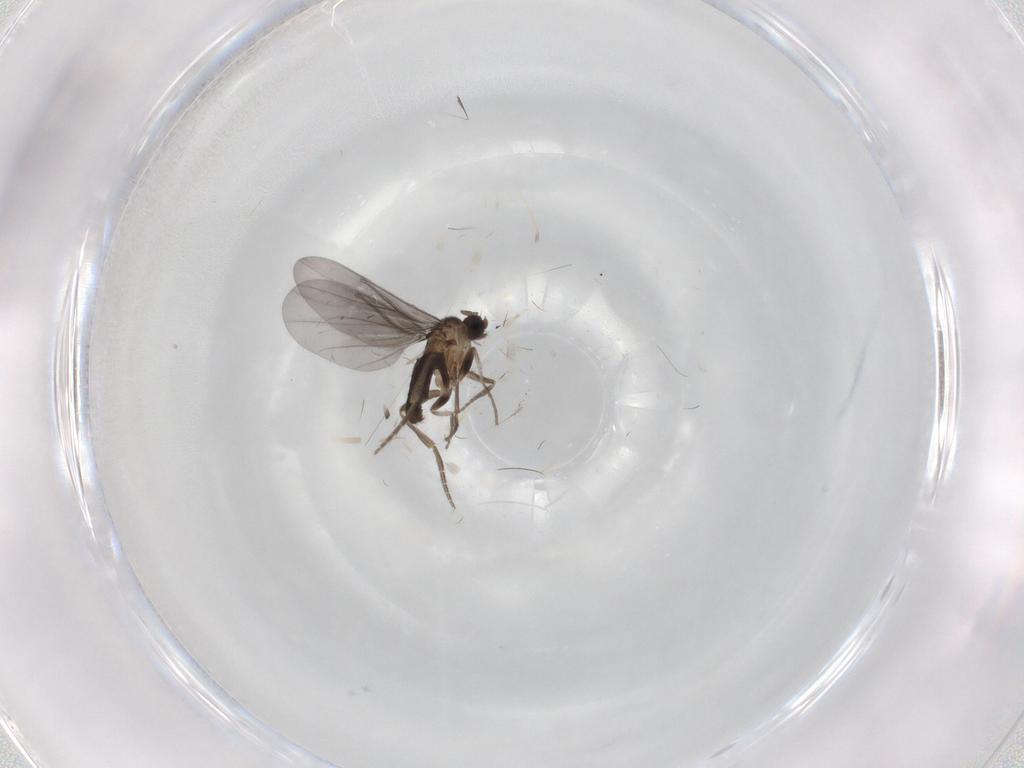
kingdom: Animalia
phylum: Arthropoda
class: Insecta
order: Diptera
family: Phoridae
